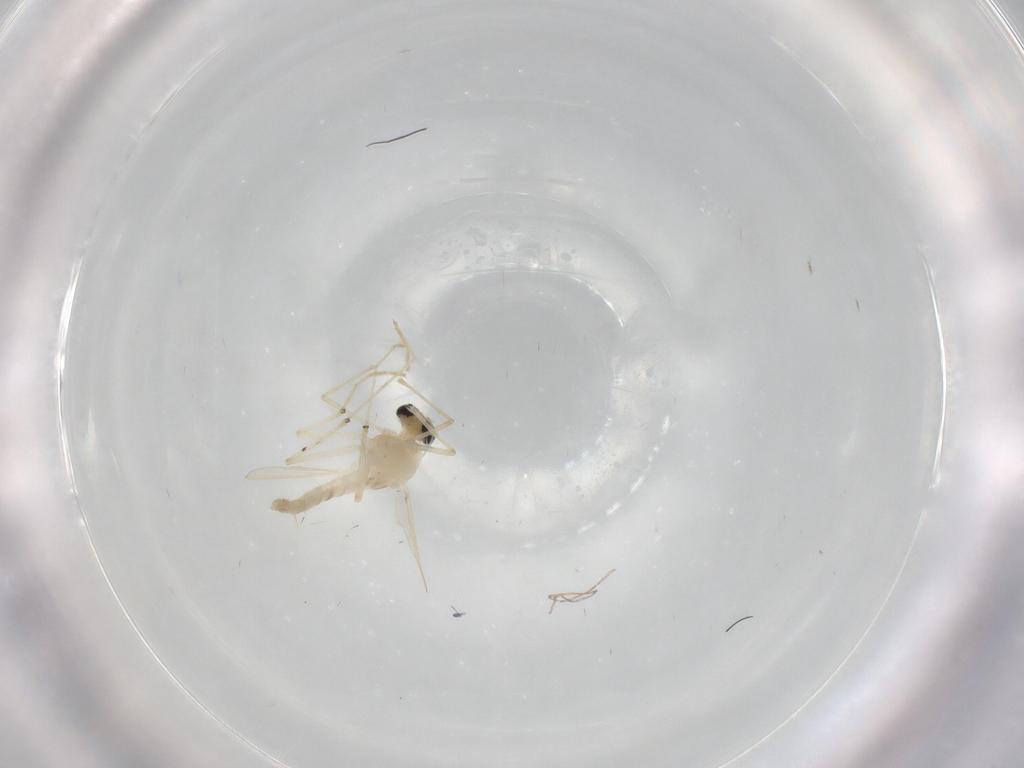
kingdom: Animalia
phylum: Arthropoda
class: Insecta
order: Diptera
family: Chironomidae
